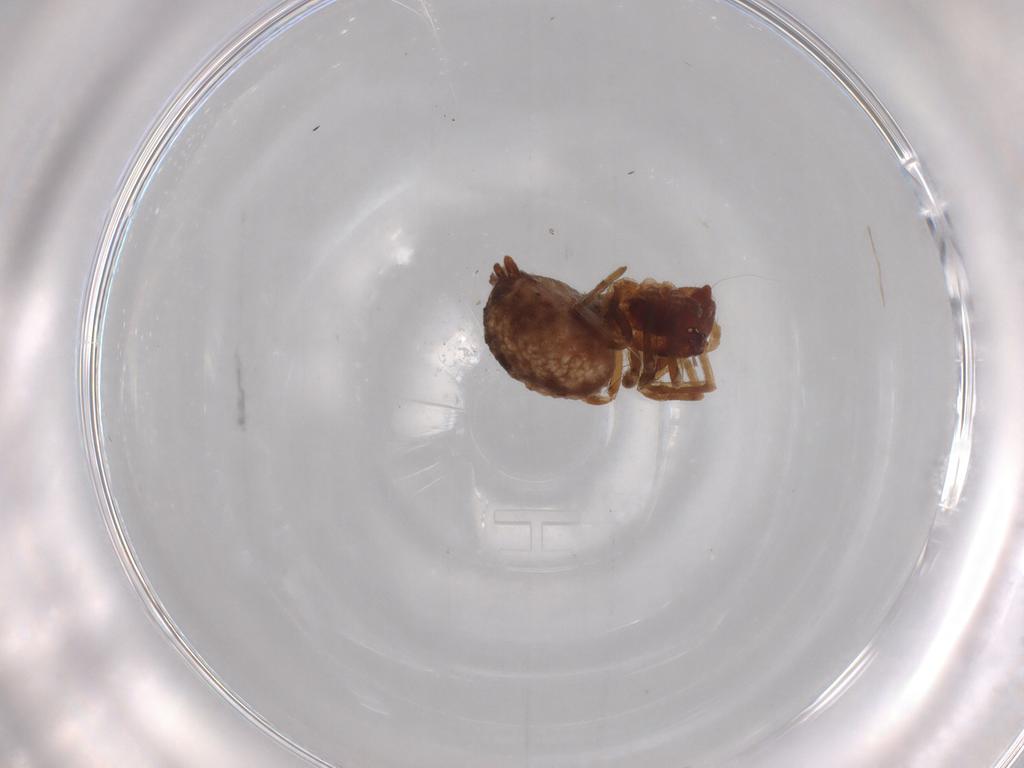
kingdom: Animalia
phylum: Arthropoda
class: Arachnida
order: Araneae
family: Dictynidae
